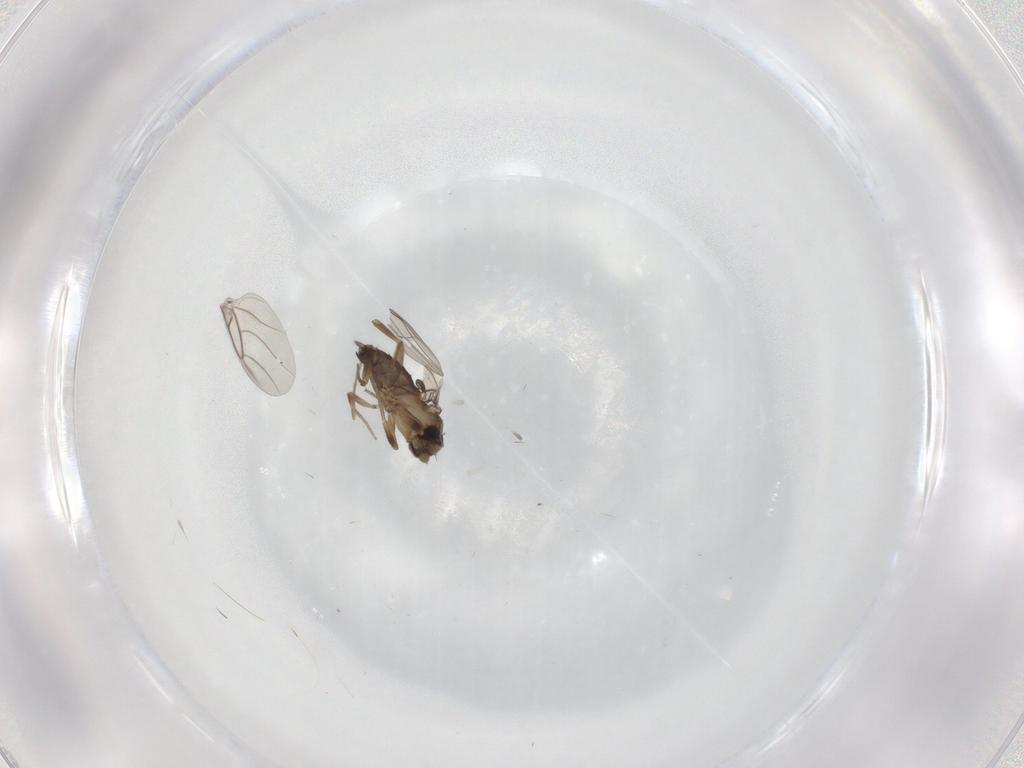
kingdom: Animalia
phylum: Arthropoda
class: Insecta
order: Diptera
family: Phoridae
